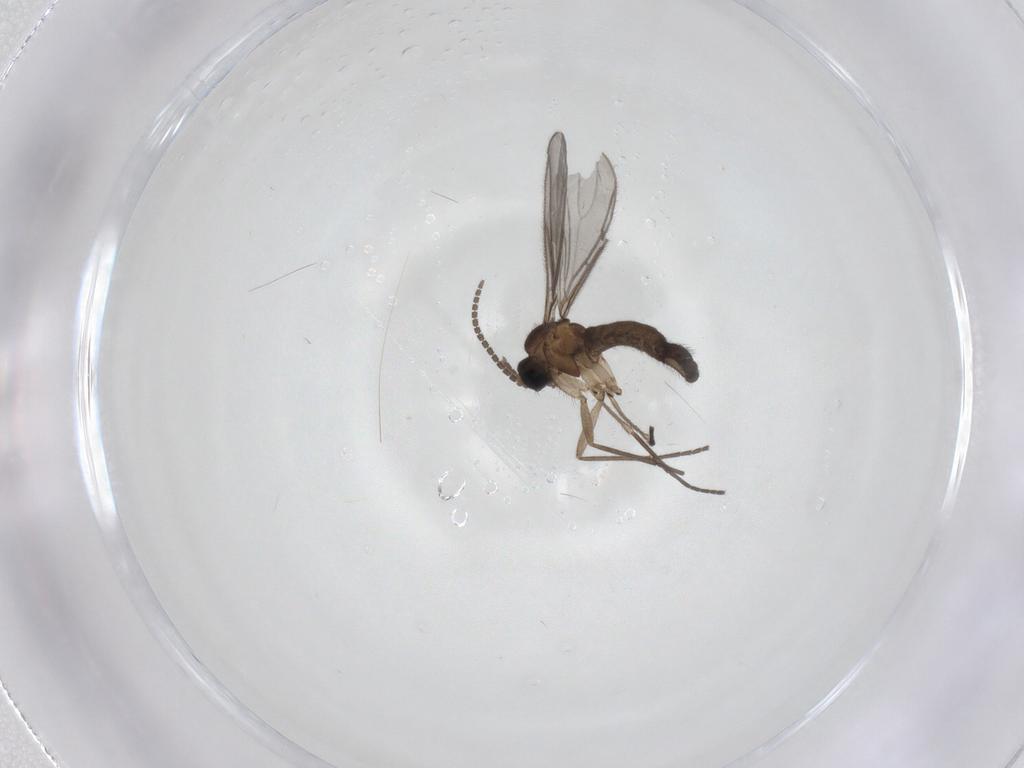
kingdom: Animalia
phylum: Arthropoda
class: Insecta
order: Diptera
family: Sciaridae
